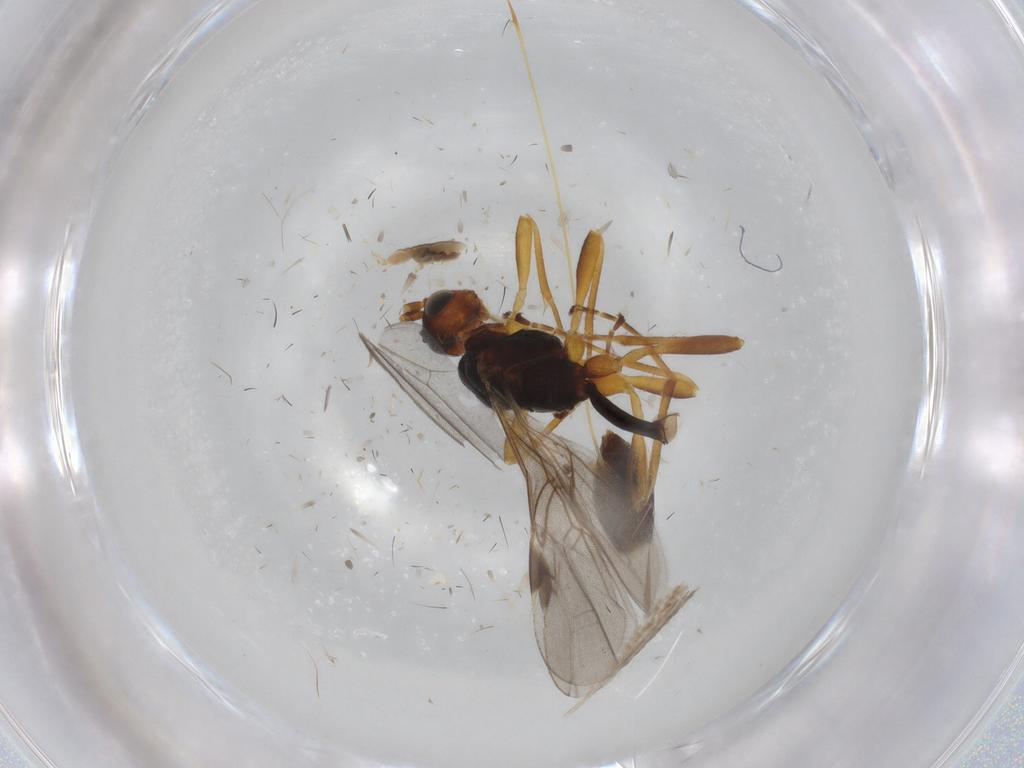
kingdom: Animalia
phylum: Arthropoda
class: Insecta
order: Hymenoptera
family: Braconidae
